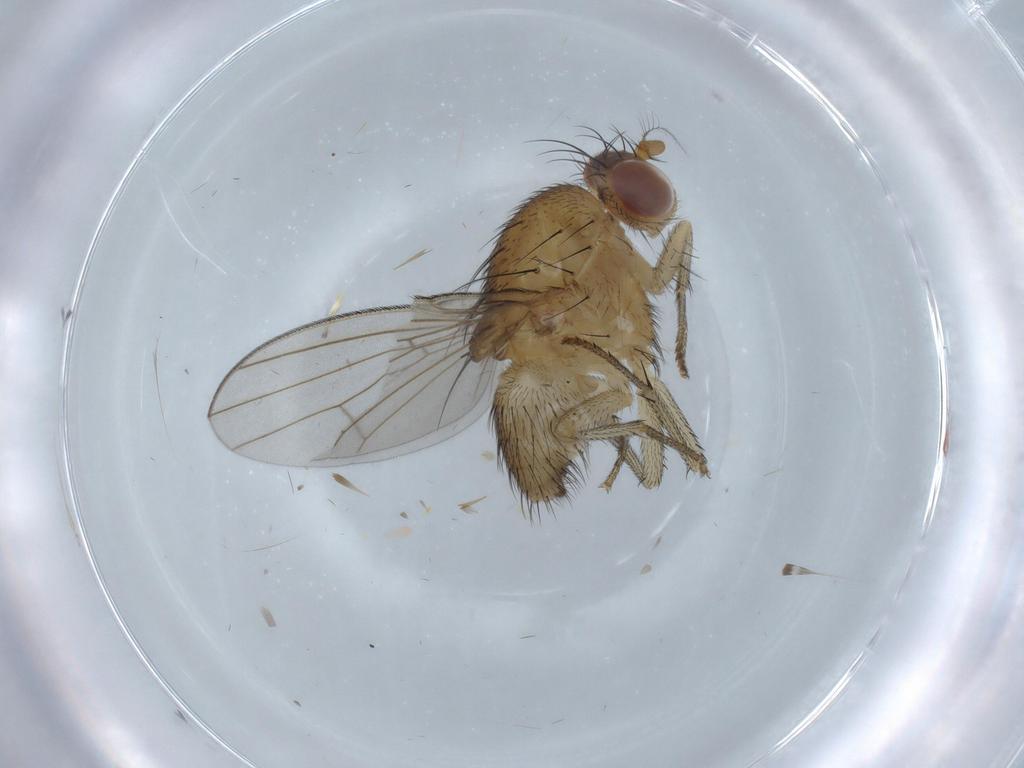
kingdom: Animalia
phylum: Arthropoda
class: Insecta
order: Diptera
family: Lauxaniidae
